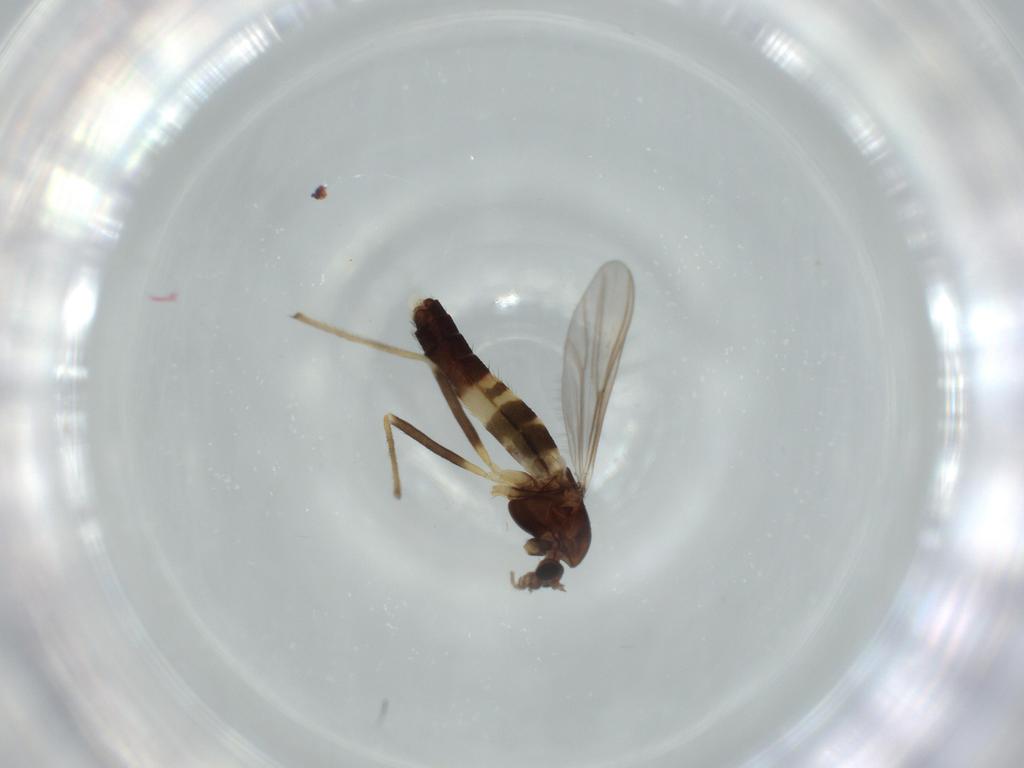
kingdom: Animalia
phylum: Arthropoda
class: Insecta
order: Diptera
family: Chironomidae
